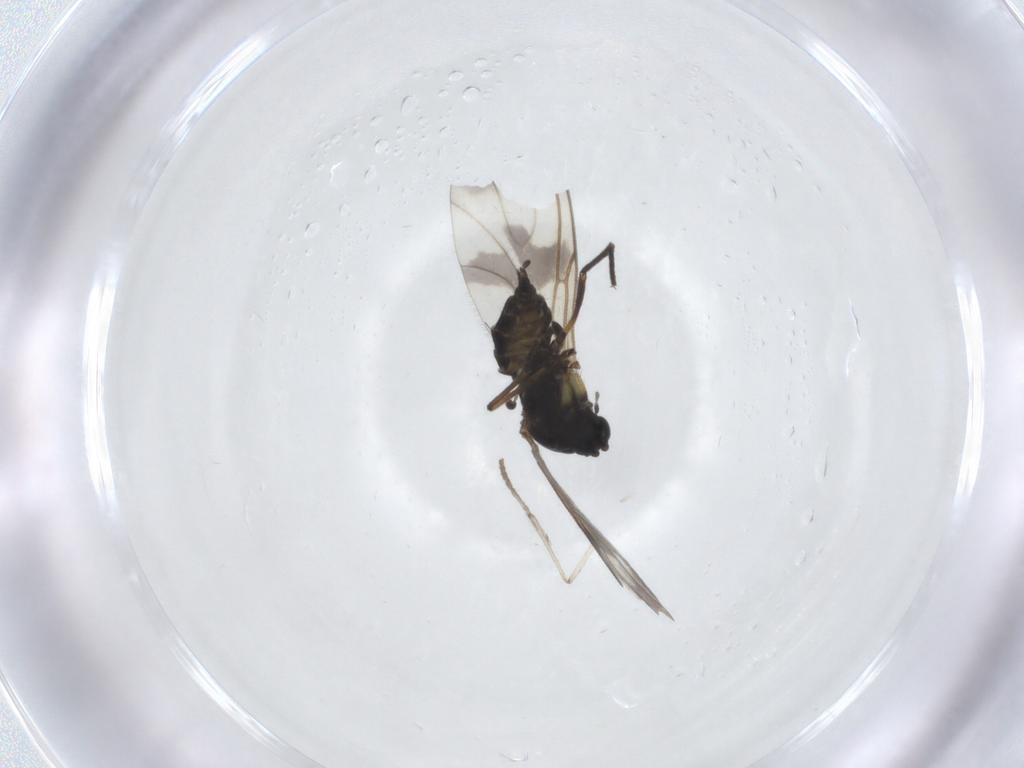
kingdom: Animalia
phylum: Arthropoda
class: Insecta
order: Diptera
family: Sciaridae
